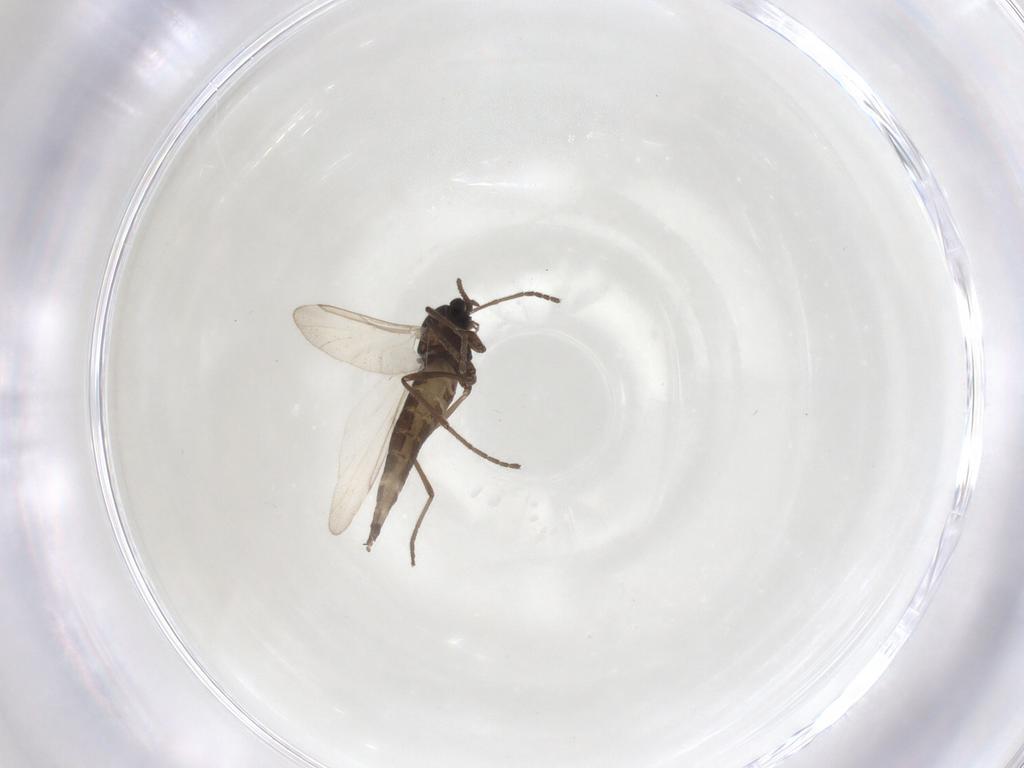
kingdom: Animalia
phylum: Arthropoda
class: Insecta
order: Diptera
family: Cecidomyiidae
